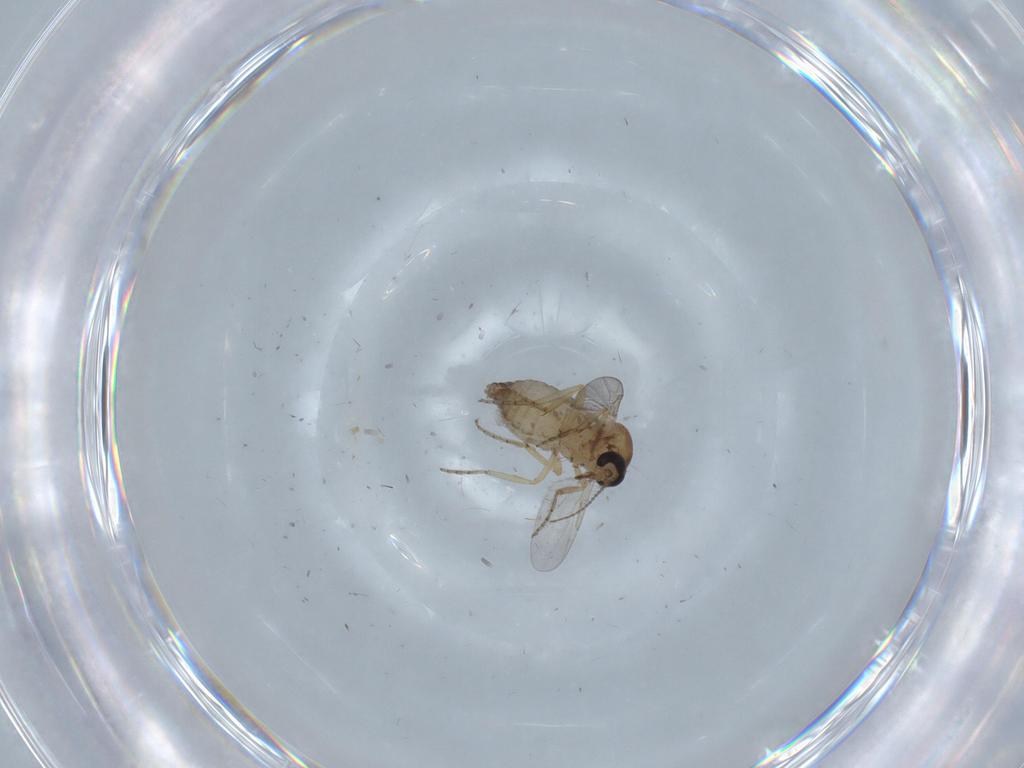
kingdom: Animalia
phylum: Arthropoda
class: Insecta
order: Diptera
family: Ceratopogonidae
